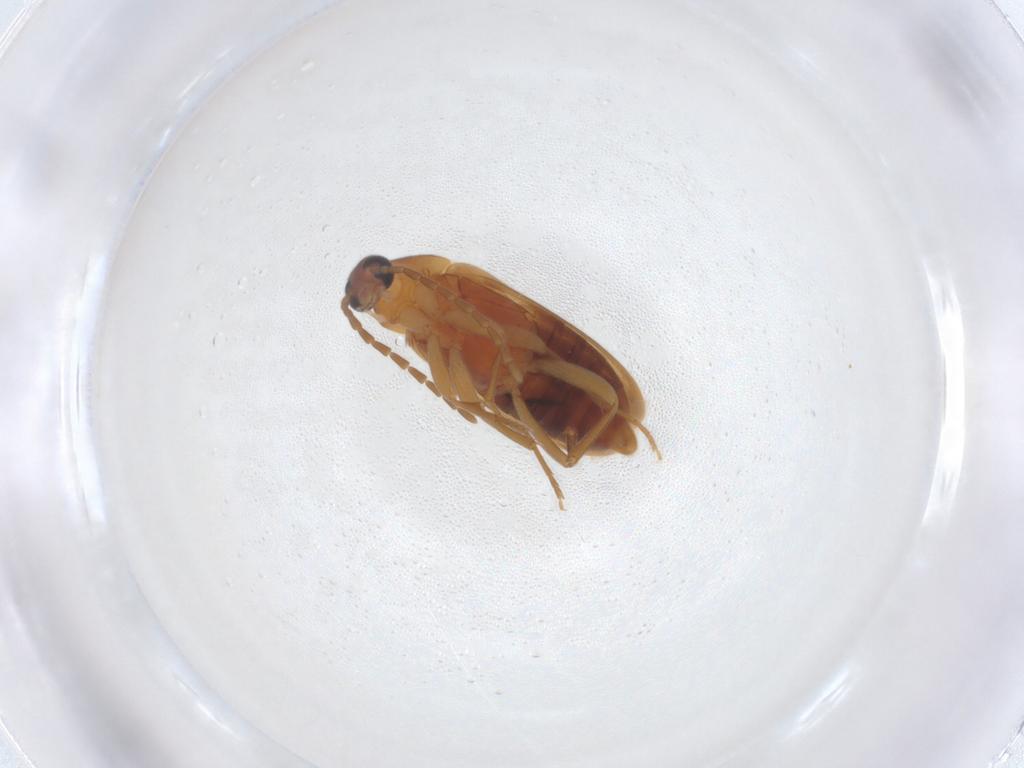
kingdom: Animalia
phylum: Arthropoda
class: Insecta
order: Coleoptera
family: Scraptiidae
